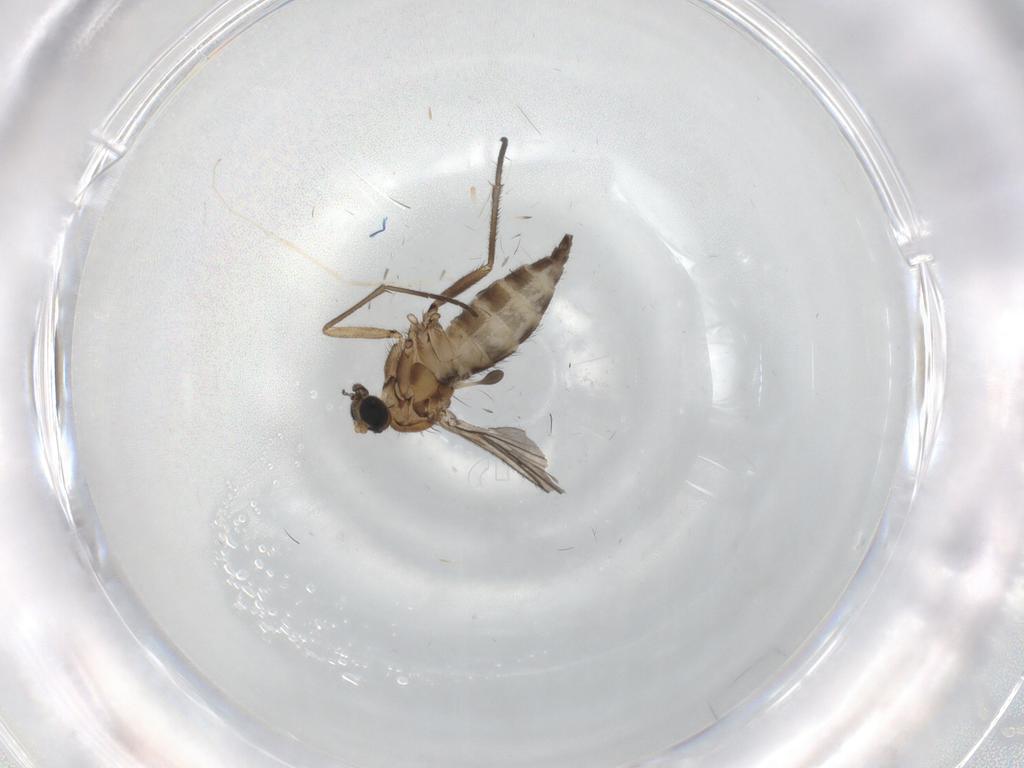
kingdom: Animalia
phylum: Arthropoda
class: Insecta
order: Diptera
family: Sciaridae
